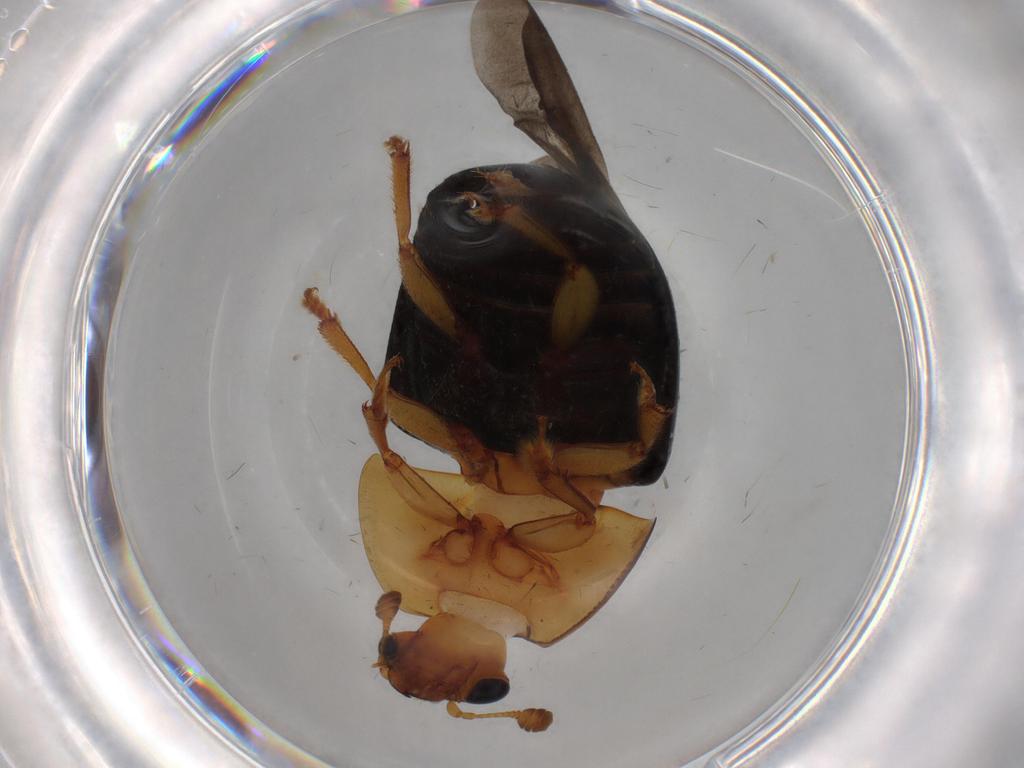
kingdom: Animalia
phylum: Arthropoda
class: Insecta
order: Coleoptera
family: Nitidulidae
